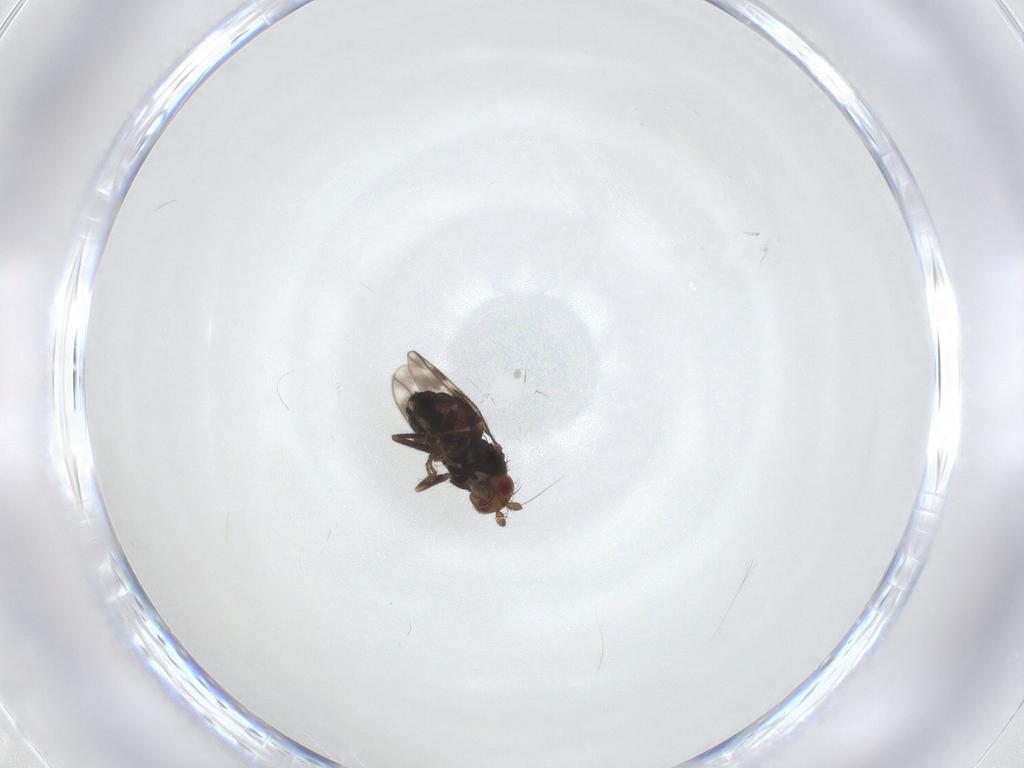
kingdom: Animalia
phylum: Arthropoda
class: Insecta
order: Diptera
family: Sphaeroceridae
